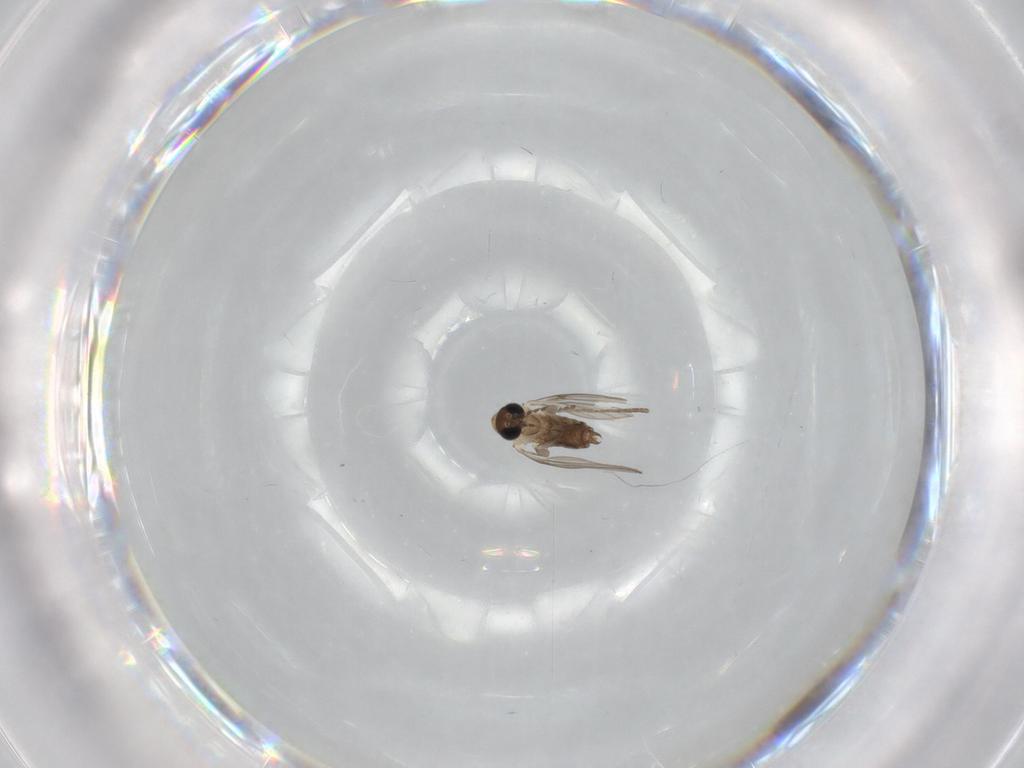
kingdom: Animalia
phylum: Arthropoda
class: Insecta
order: Diptera
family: Psychodidae
